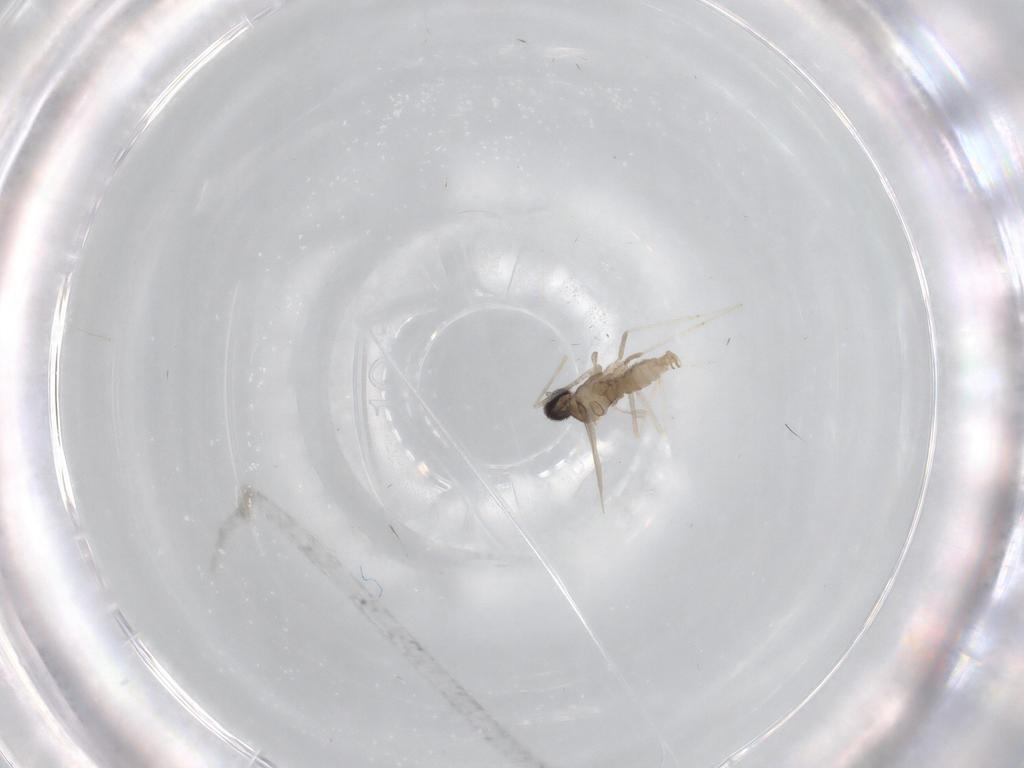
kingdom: Animalia
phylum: Arthropoda
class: Insecta
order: Diptera
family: Cecidomyiidae
